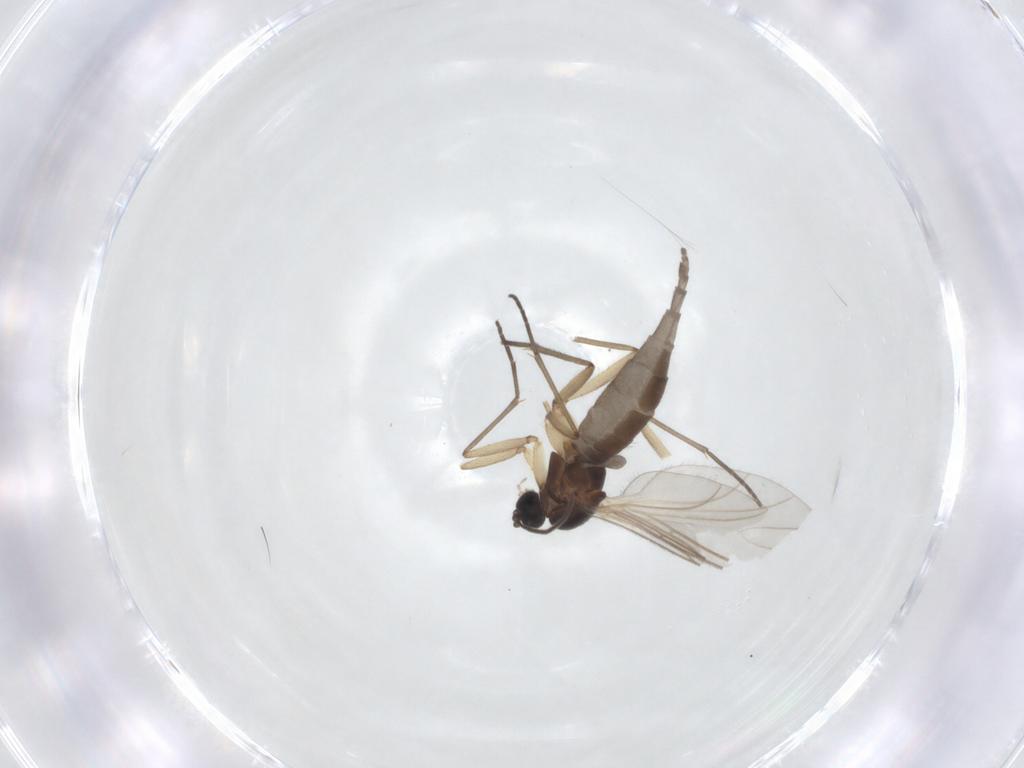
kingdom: Animalia
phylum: Arthropoda
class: Insecta
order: Diptera
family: Sciaridae
